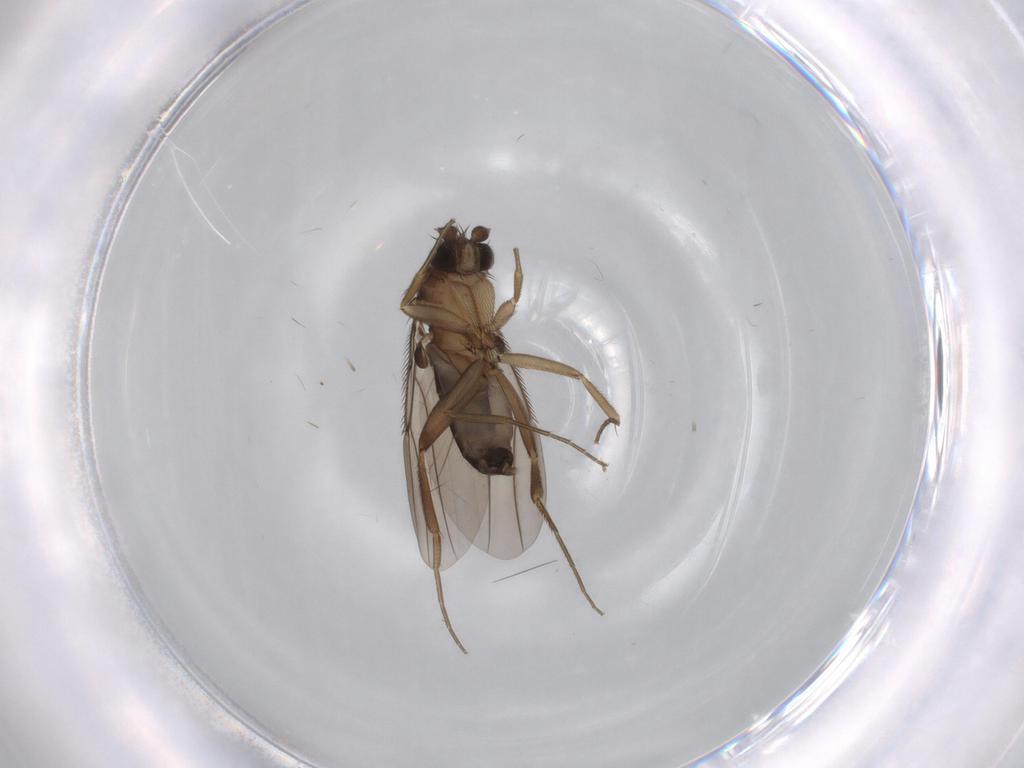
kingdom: Animalia
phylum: Arthropoda
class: Insecta
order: Diptera
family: Phoridae
